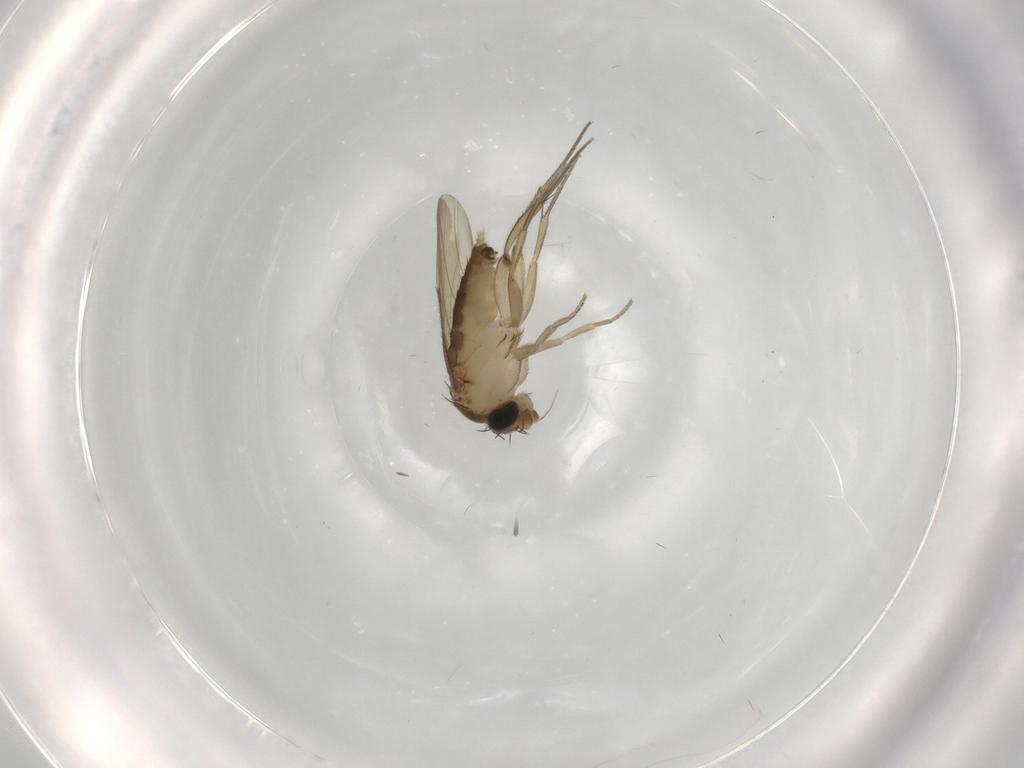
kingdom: Animalia
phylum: Arthropoda
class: Insecta
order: Diptera
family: Phoridae
